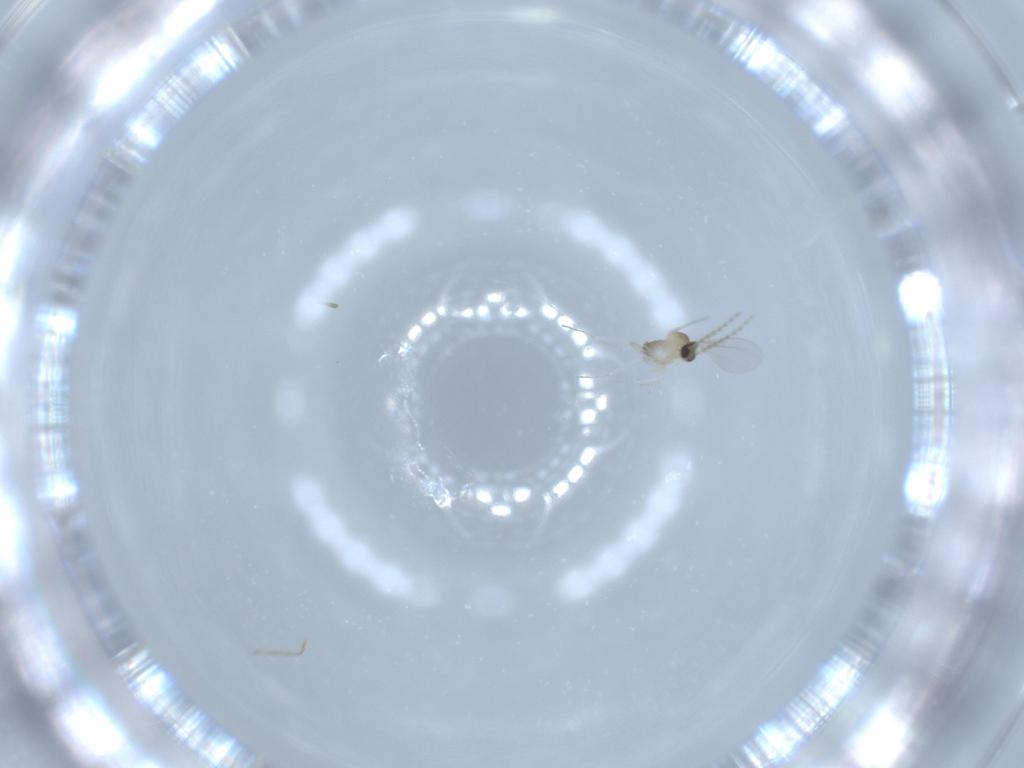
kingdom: Animalia
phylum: Arthropoda
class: Insecta
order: Diptera
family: Cecidomyiidae
